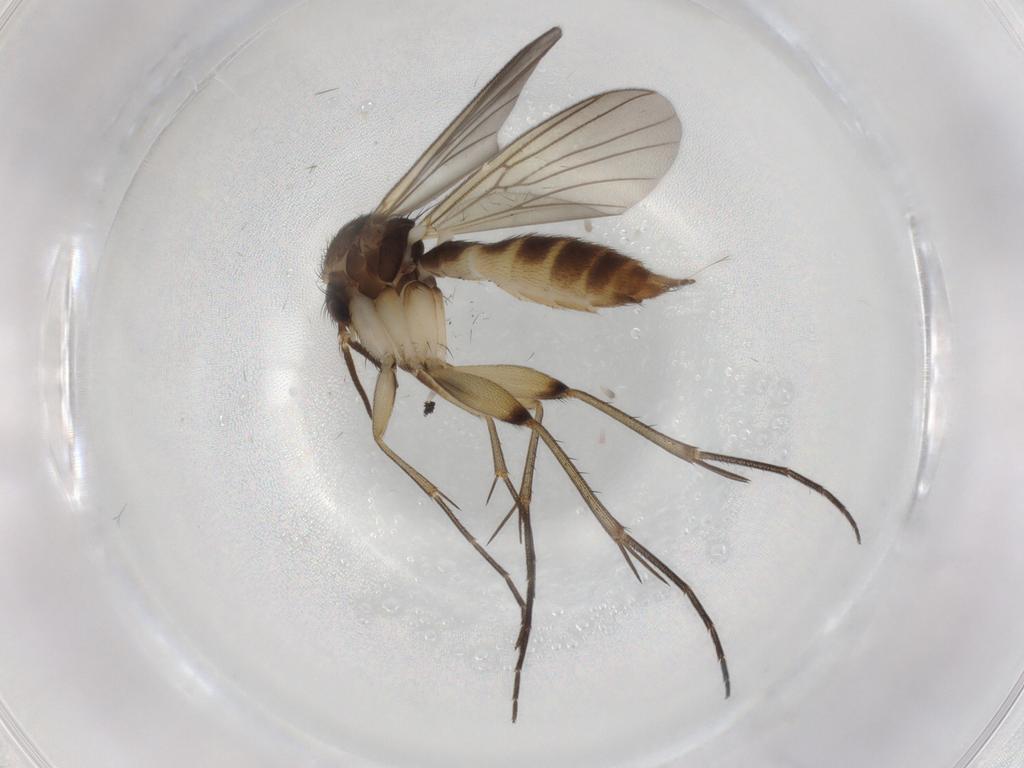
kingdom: Animalia
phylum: Arthropoda
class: Insecta
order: Diptera
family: Mycetophilidae
